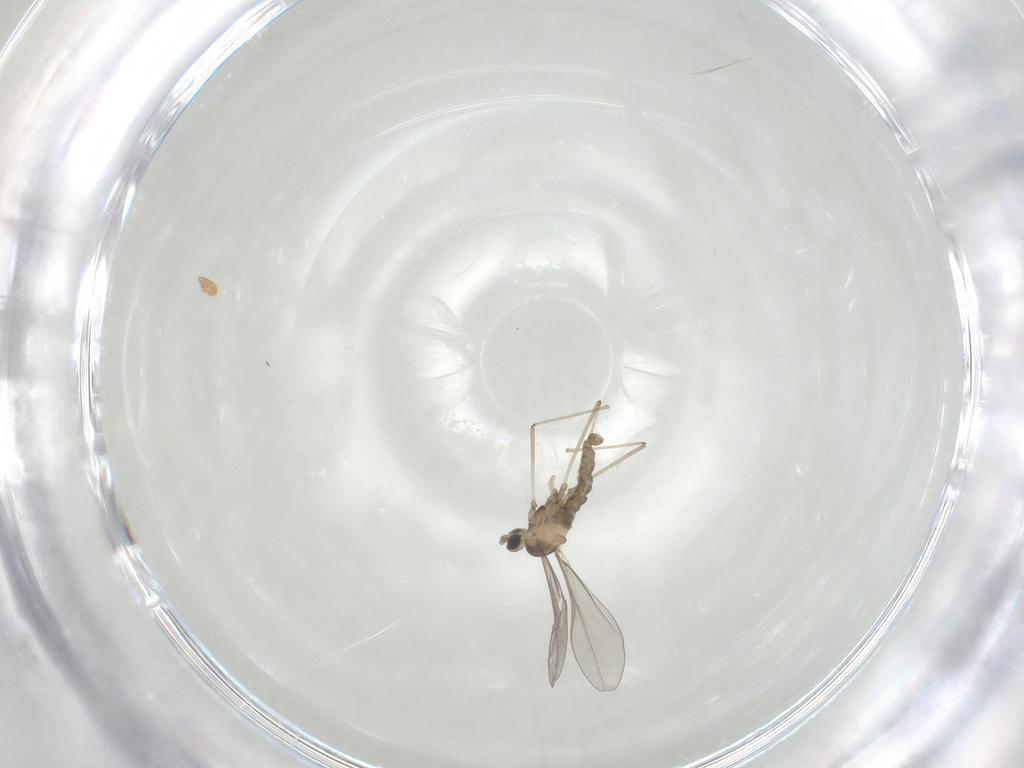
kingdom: Animalia
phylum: Arthropoda
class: Insecta
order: Diptera
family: Cecidomyiidae
